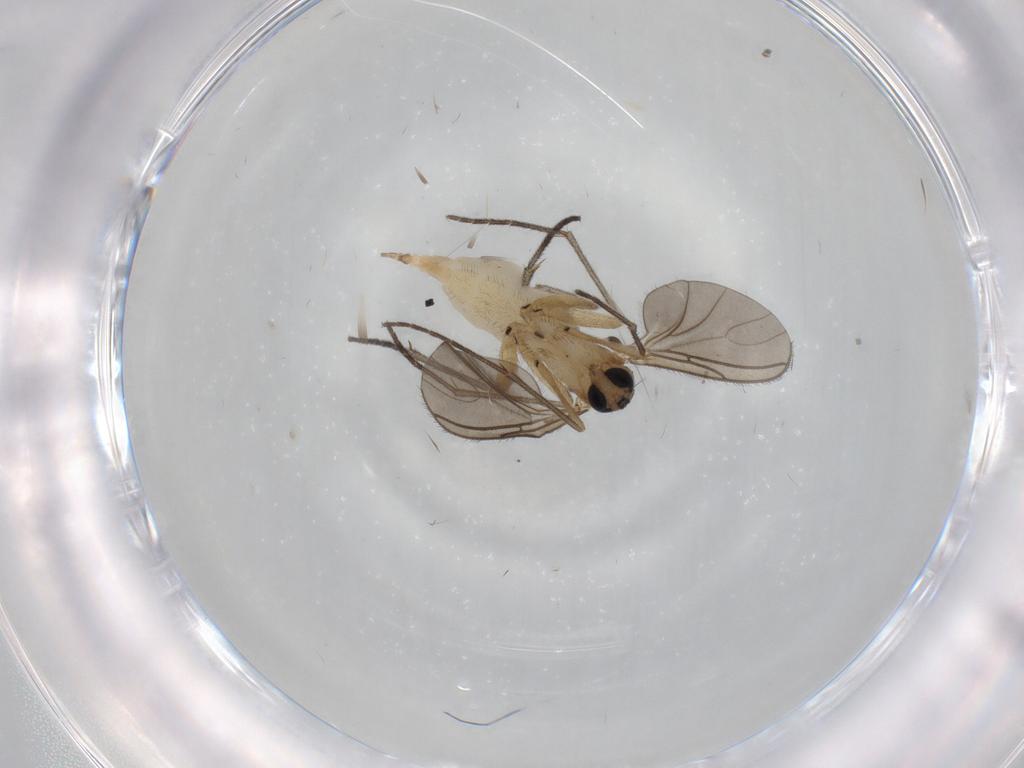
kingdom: Animalia
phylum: Arthropoda
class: Insecta
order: Diptera
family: Sciaridae
